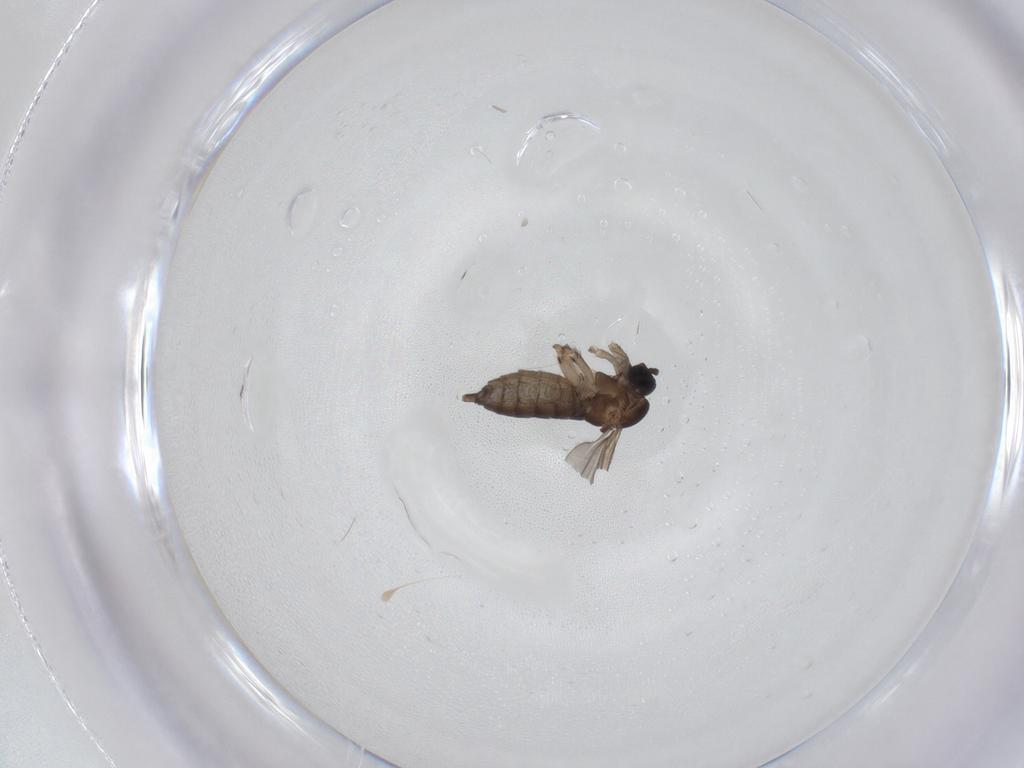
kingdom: Animalia
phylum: Arthropoda
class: Insecta
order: Diptera
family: Sciaridae
